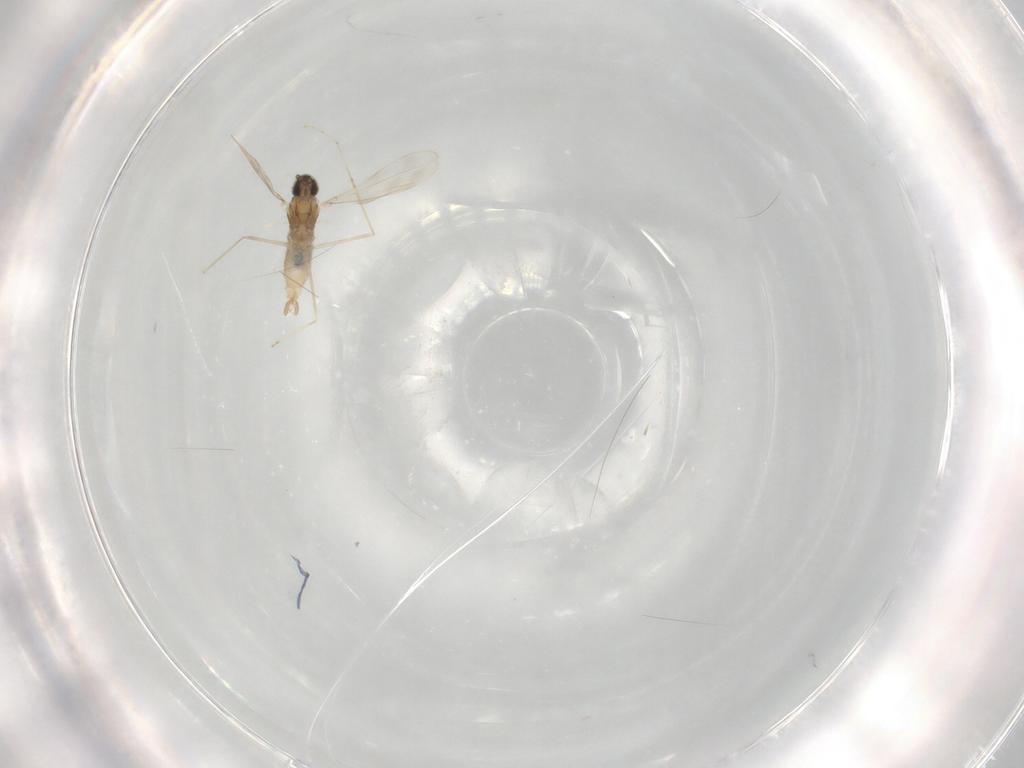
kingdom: Animalia
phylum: Arthropoda
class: Insecta
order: Diptera
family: Cecidomyiidae
